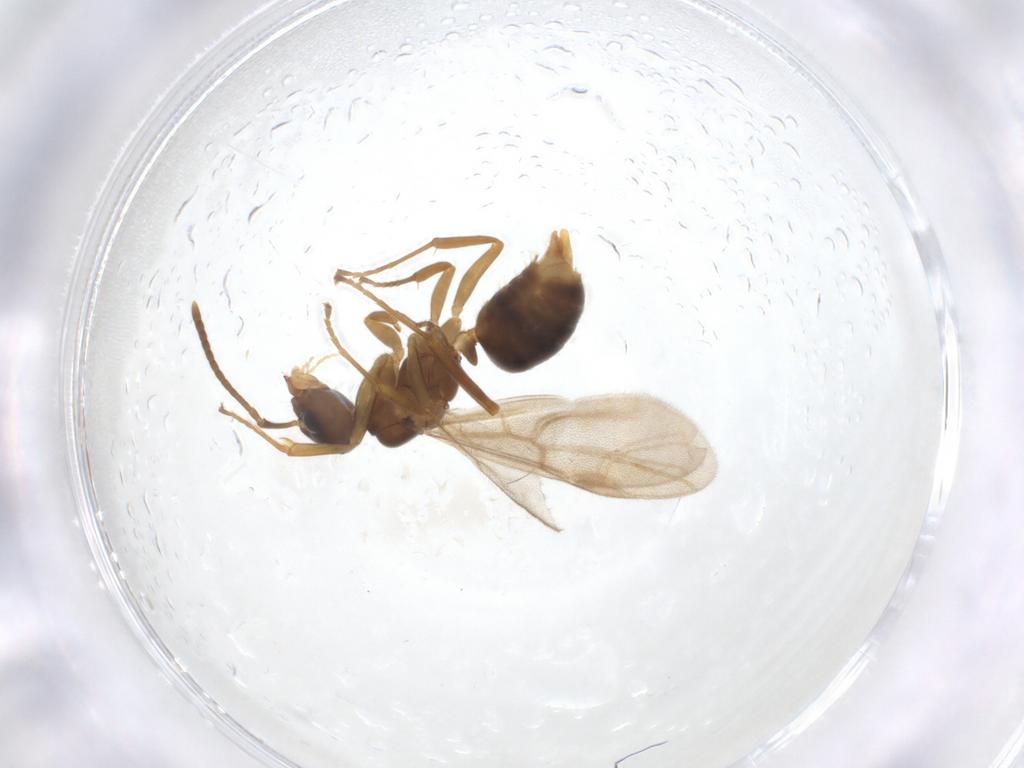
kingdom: Animalia
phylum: Arthropoda
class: Insecta
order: Hymenoptera
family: Formicidae
